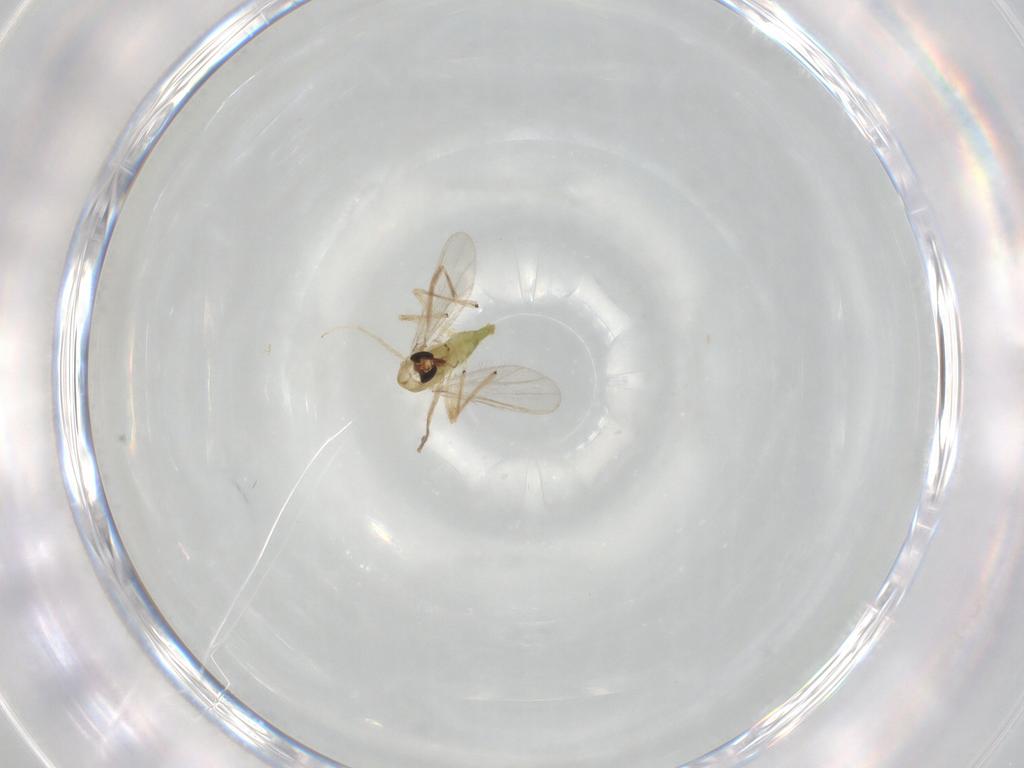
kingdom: Animalia
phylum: Arthropoda
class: Insecta
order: Diptera
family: Chironomidae
